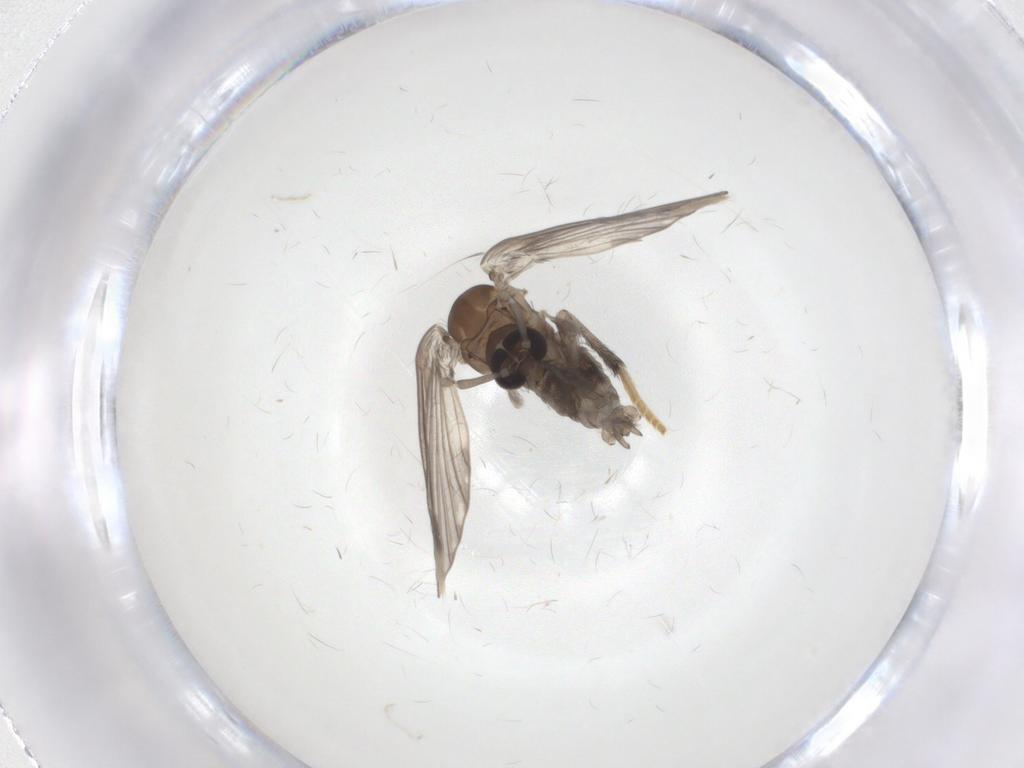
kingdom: Animalia
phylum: Arthropoda
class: Insecta
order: Diptera
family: Psychodidae
